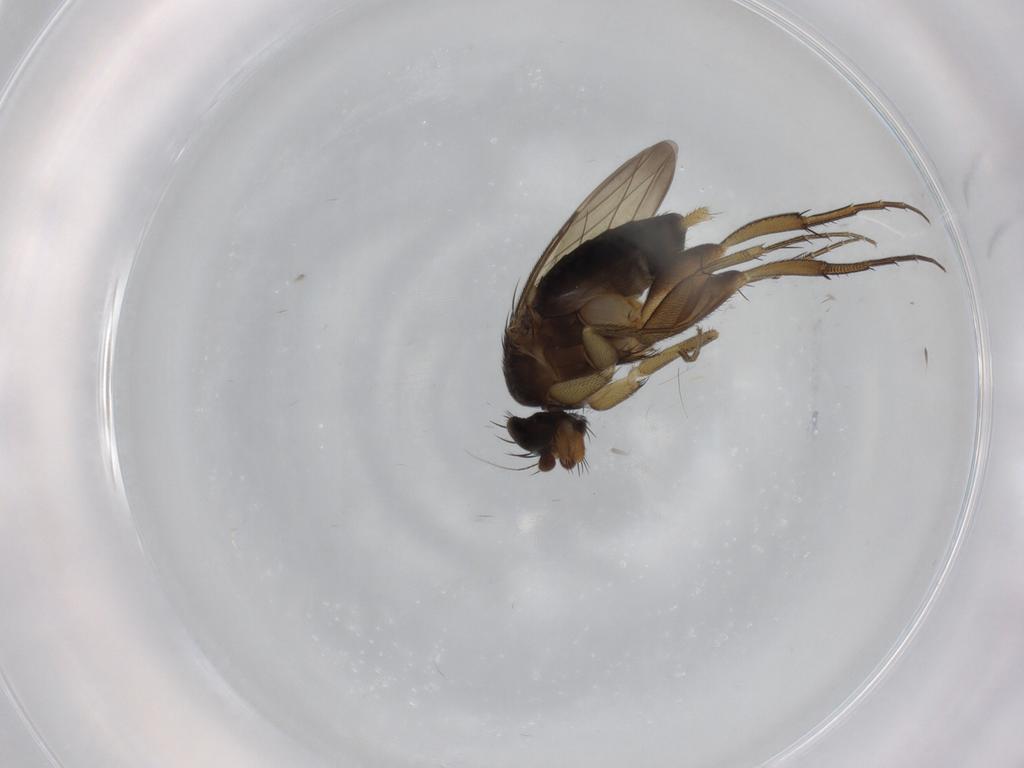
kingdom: Animalia
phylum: Arthropoda
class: Insecta
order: Diptera
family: Phoridae
